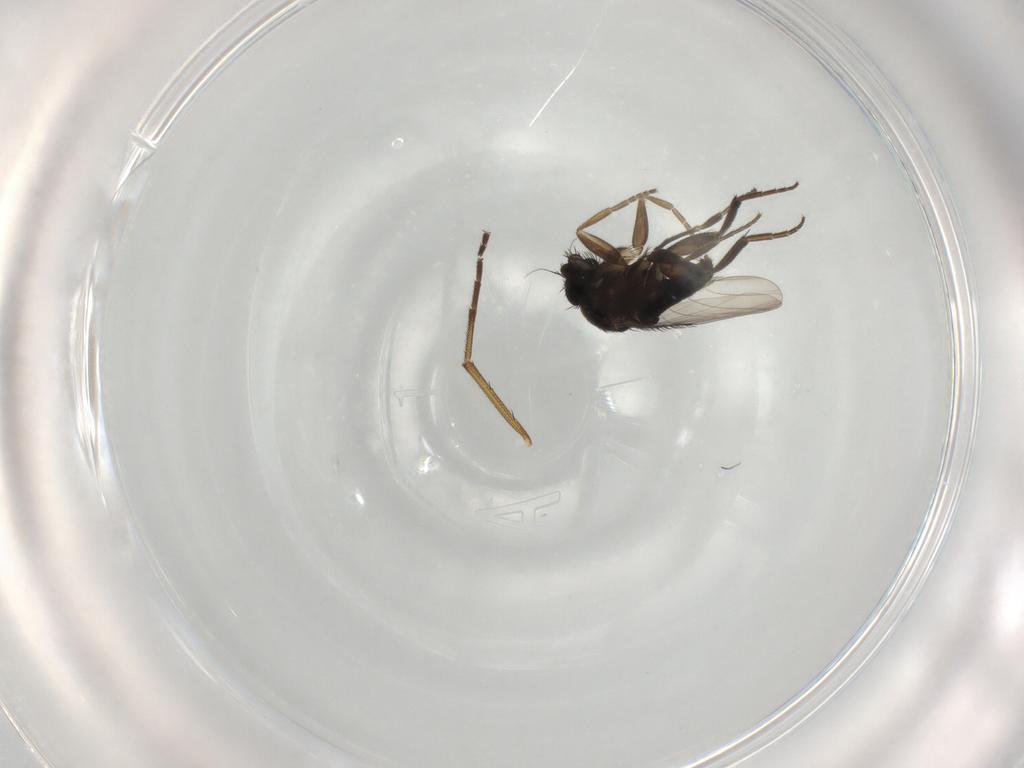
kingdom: Animalia
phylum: Arthropoda
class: Insecta
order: Diptera
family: Phoridae
